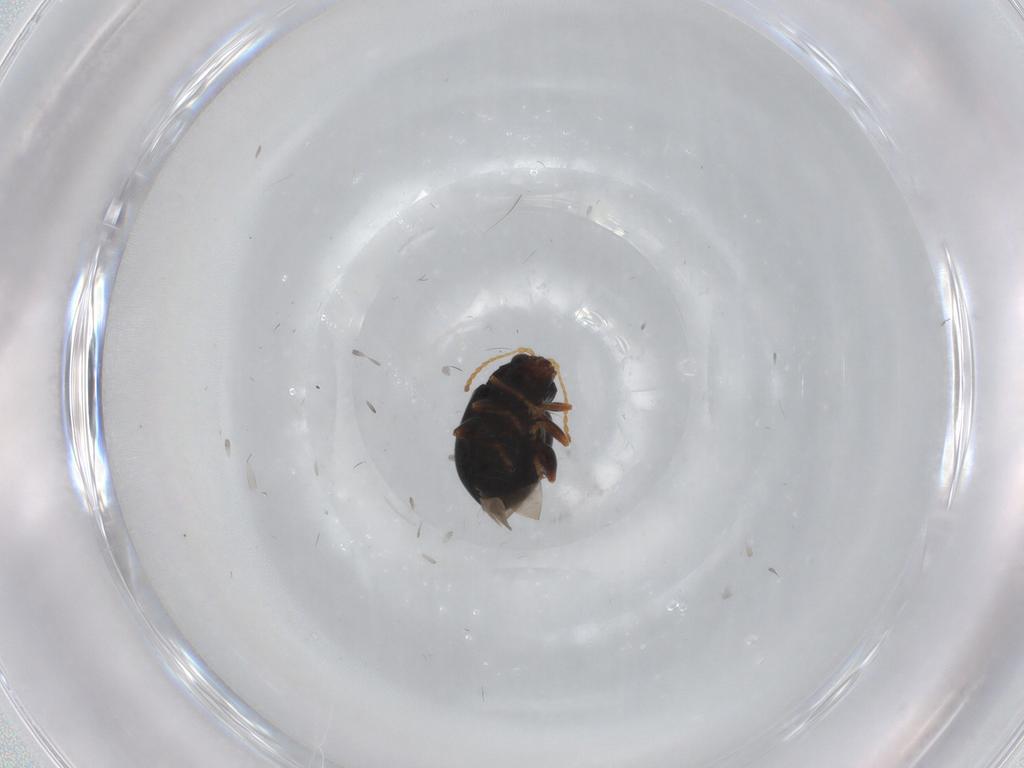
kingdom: Animalia
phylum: Arthropoda
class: Insecta
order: Coleoptera
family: Chrysomelidae
